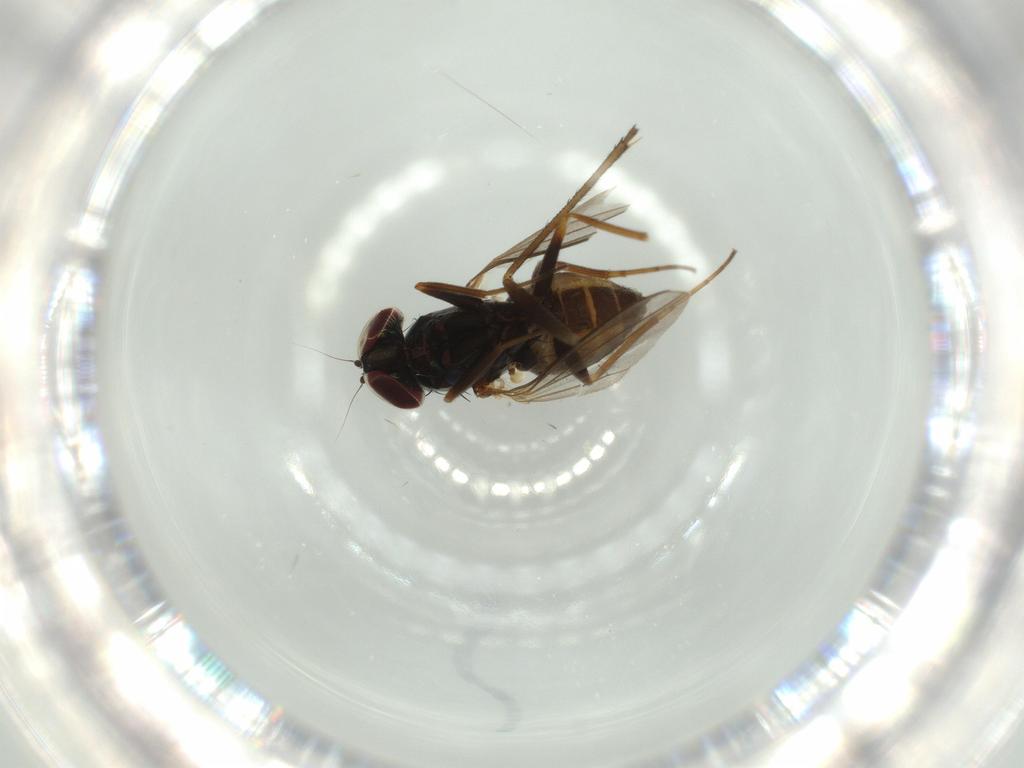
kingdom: Animalia
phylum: Arthropoda
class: Insecta
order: Diptera
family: Dolichopodidae
